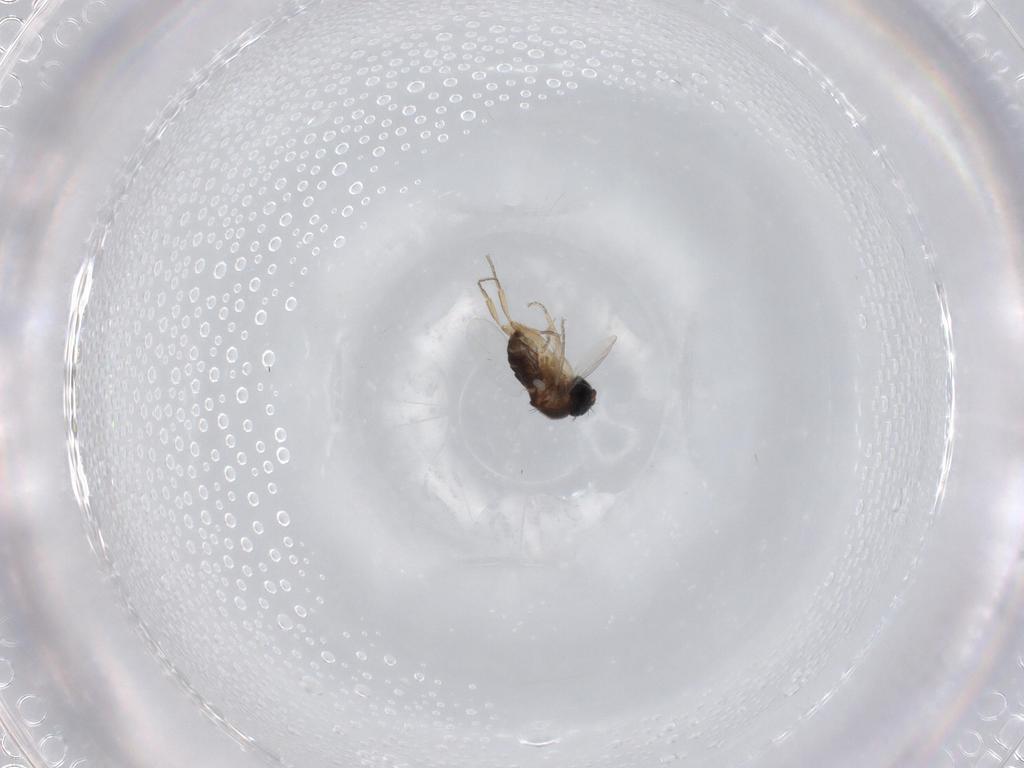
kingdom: Animalia
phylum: Arthropoda
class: Insecta
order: Diptera
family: Phoridae
